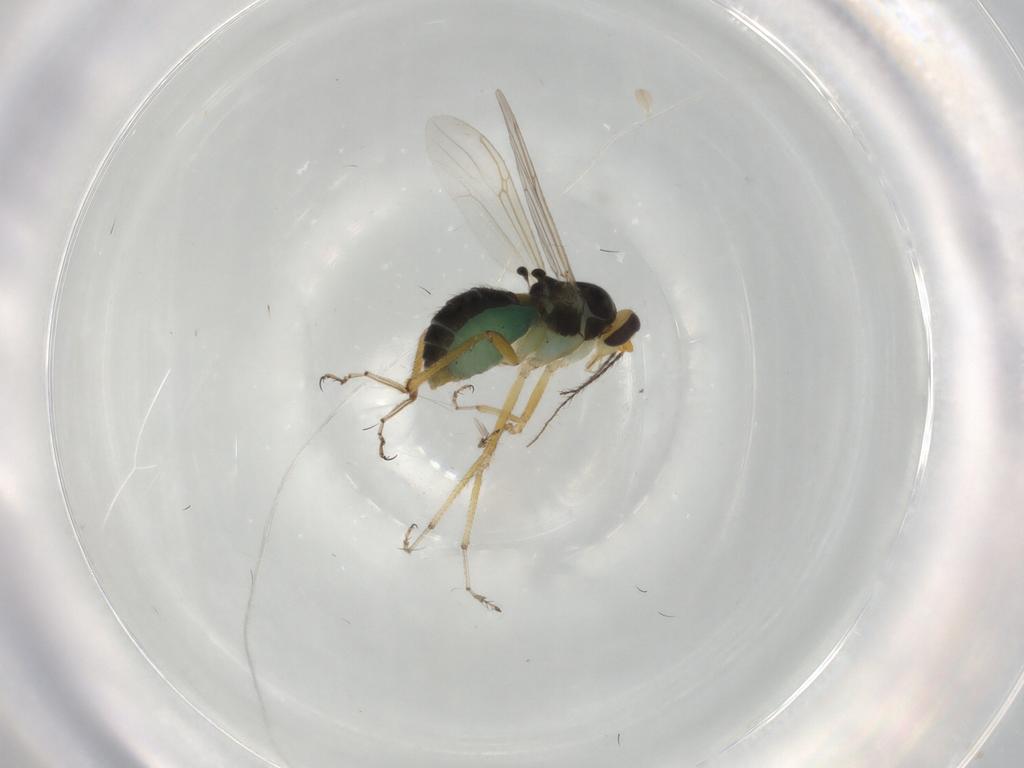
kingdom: Animalia
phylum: Arthropoda
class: Insecta
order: Diptera
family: Ceratopogonidae
